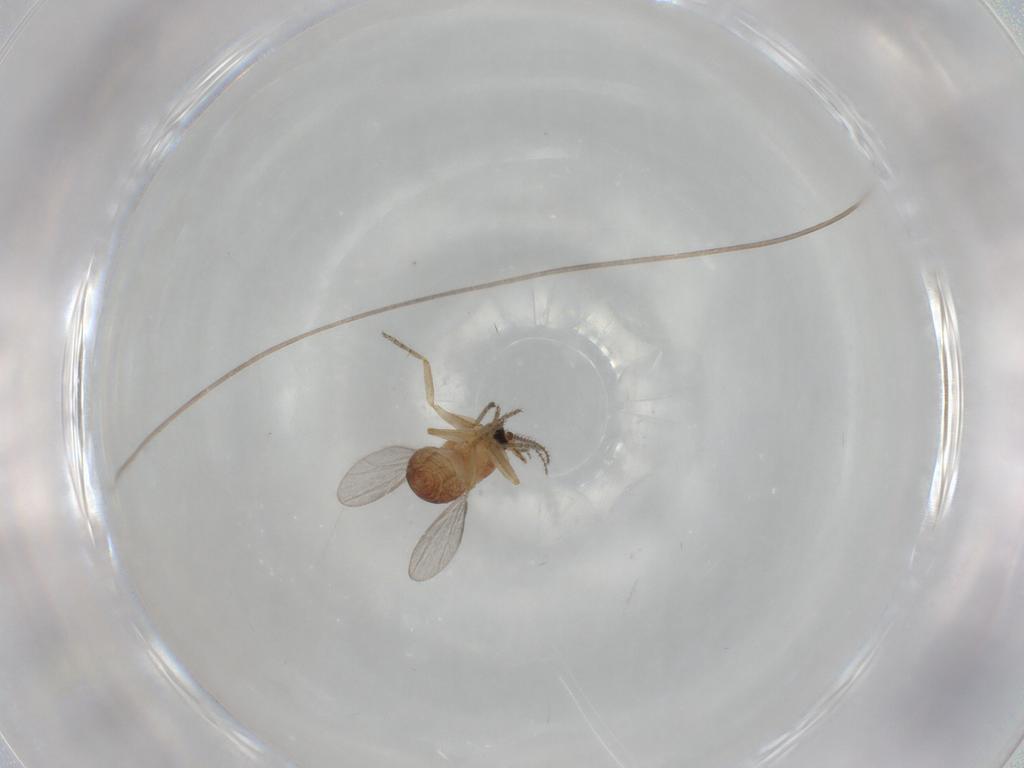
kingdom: Animalia
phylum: Arthropoda
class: Insecta
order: Diptera
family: Ceratopogonidae
